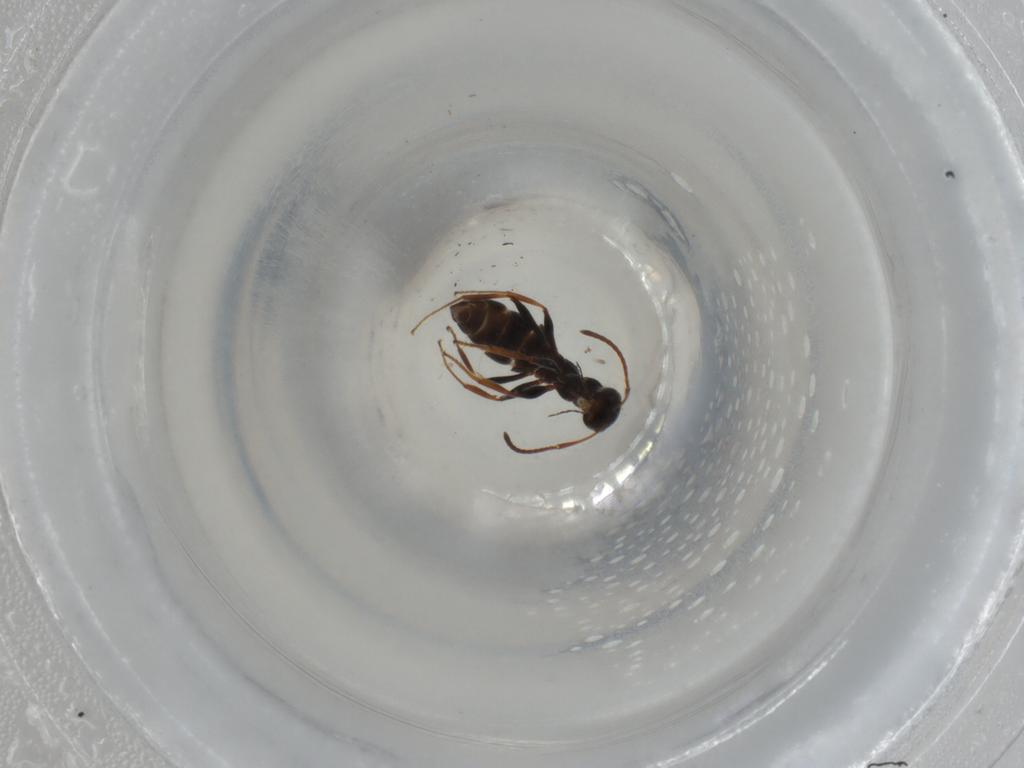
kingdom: Animalia
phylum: Arthropoda
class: Insecta
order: Hymenoptera
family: Formicidae
